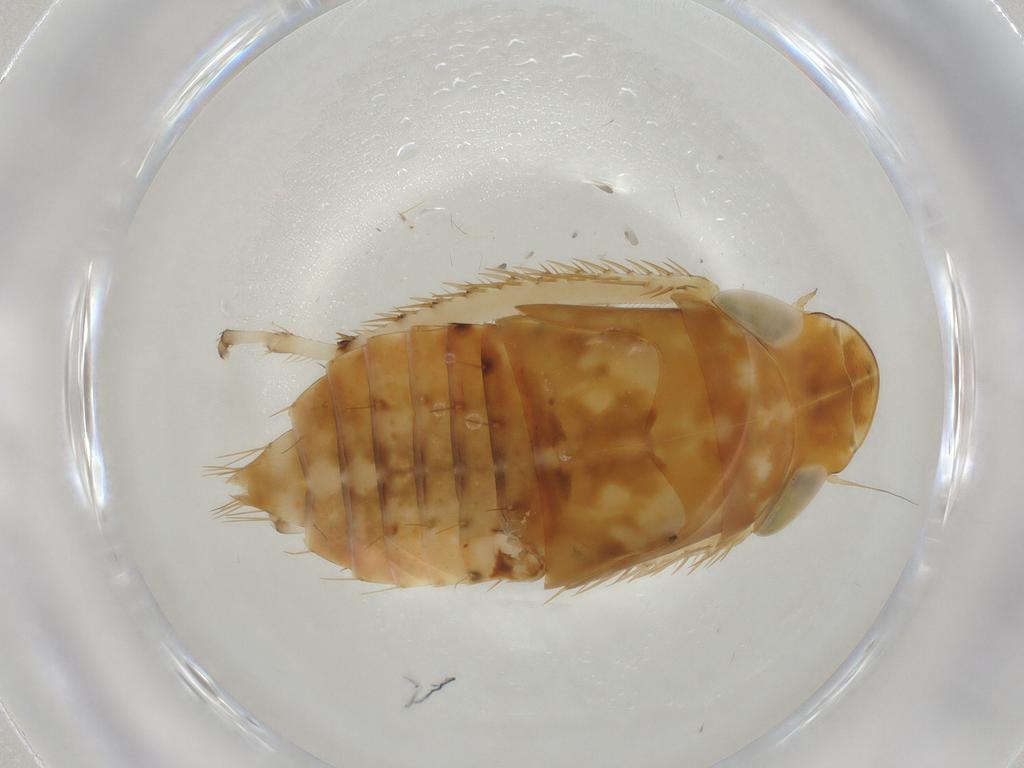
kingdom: Animalia
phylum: Arthropoda
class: Insecta
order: Hemiptera
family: Cicadellidae
